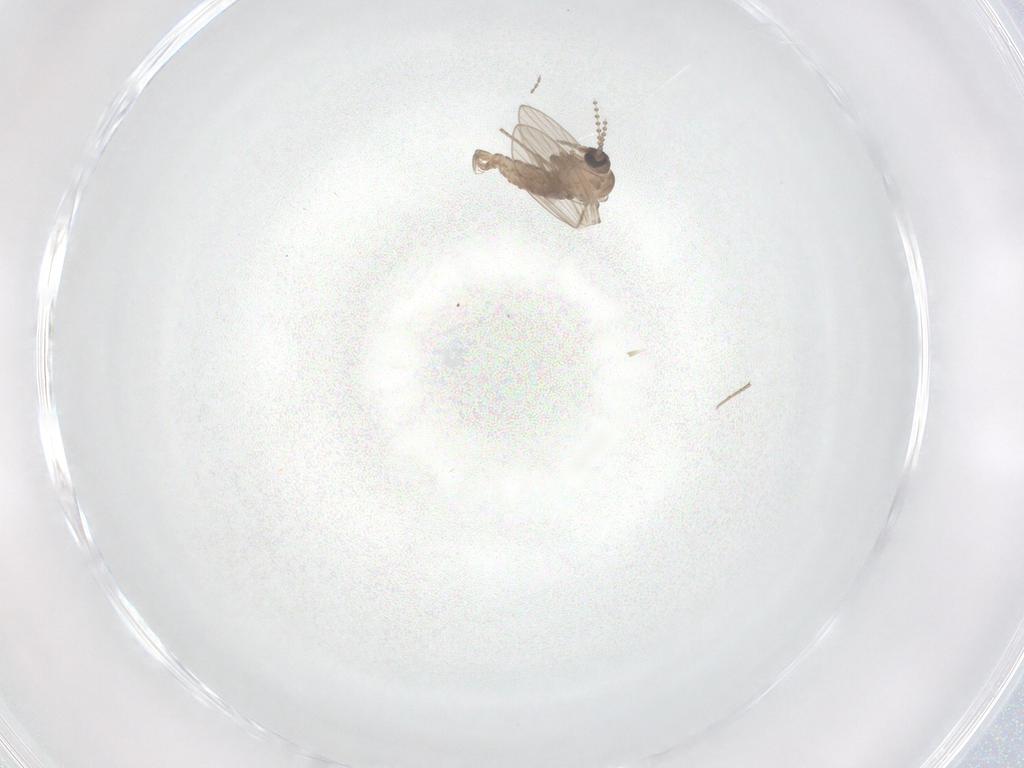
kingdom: Animalia
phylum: Arthropoda
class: Insecta
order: Diptera
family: Psychodidae
